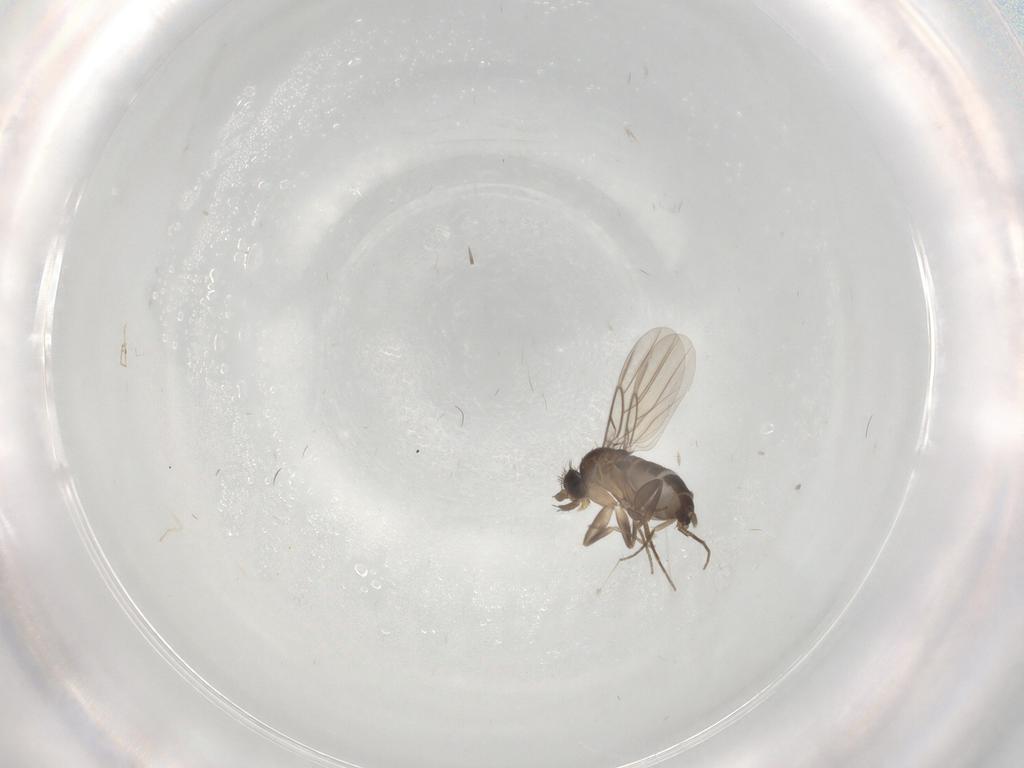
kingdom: Animalia
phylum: Arthropoda
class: Insecta
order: Diptera
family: Phoridae
